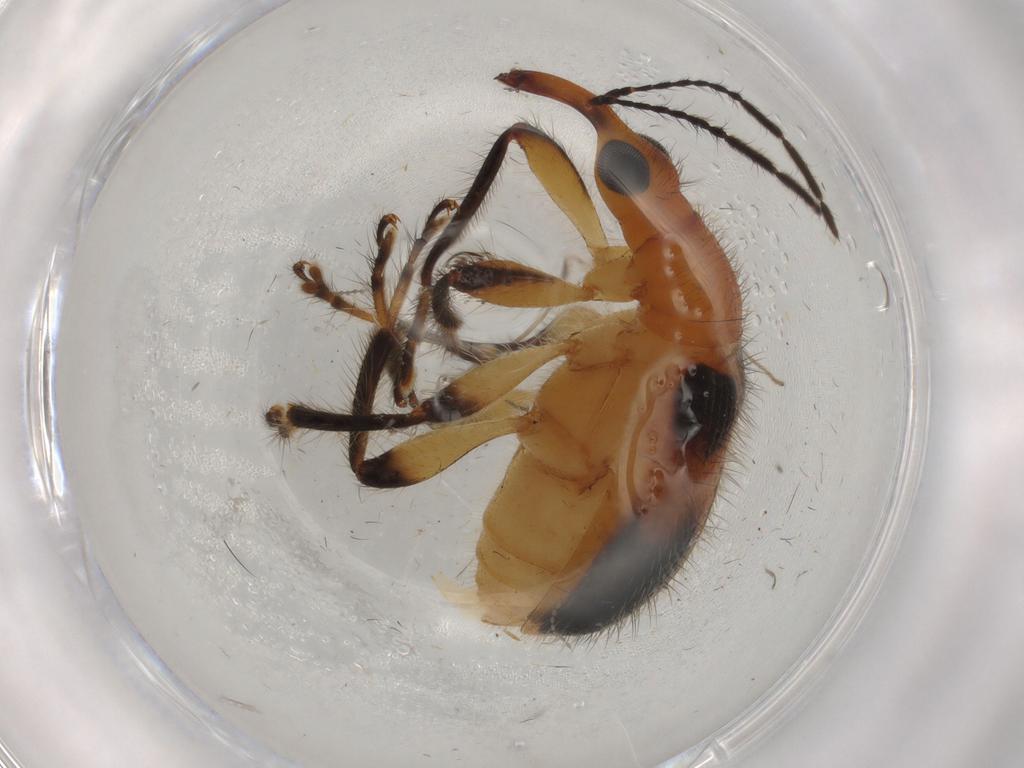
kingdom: Animalia
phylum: Arthropoda
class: Insecta
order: Coleoptera
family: Attelabidae
